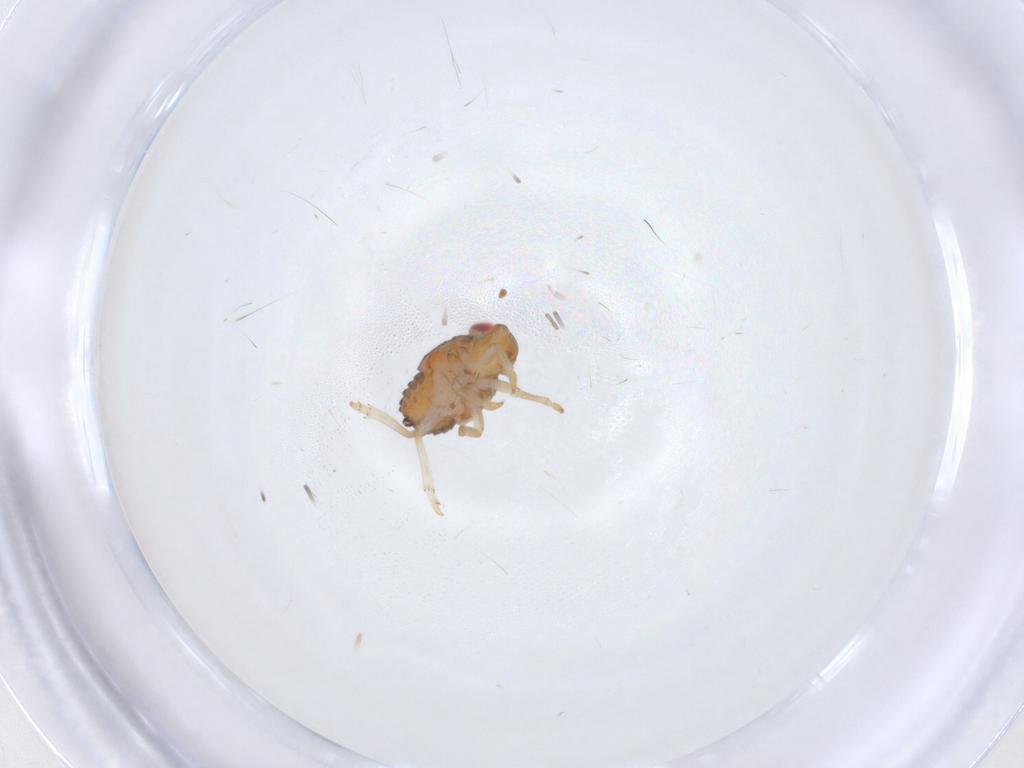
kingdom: Animalia
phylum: Arthropoda
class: Insecta
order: Hemiptera
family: Issidae
